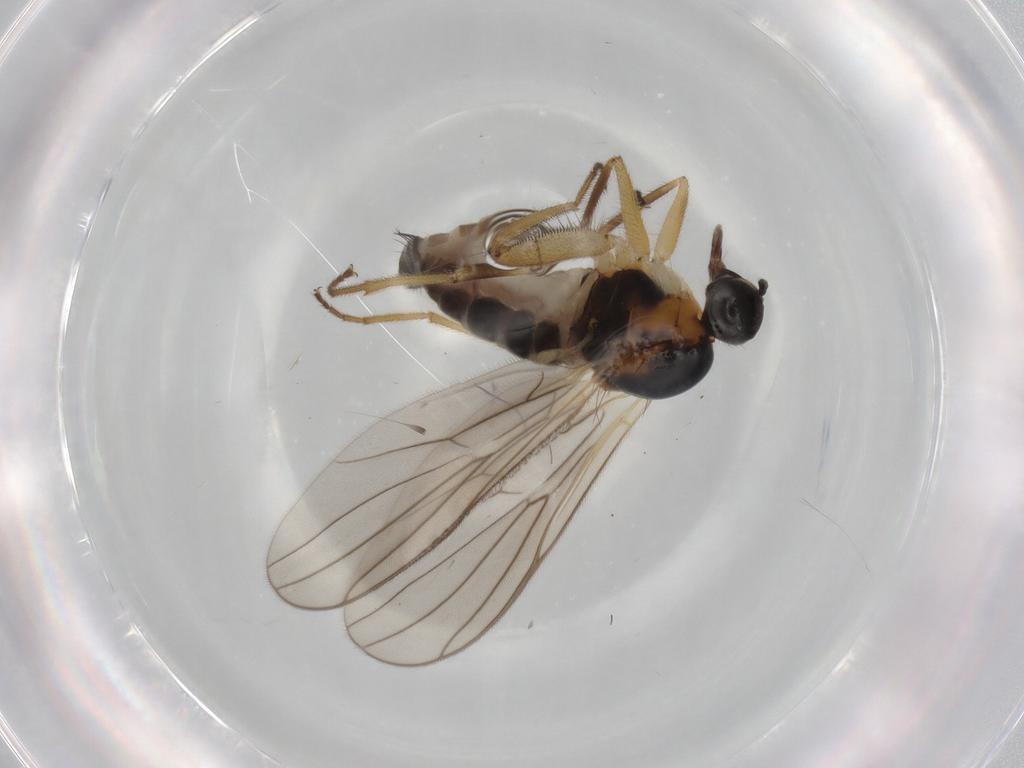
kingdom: Animalia
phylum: Arthropoda
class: Insecta
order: Diptera
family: Hybotidae
